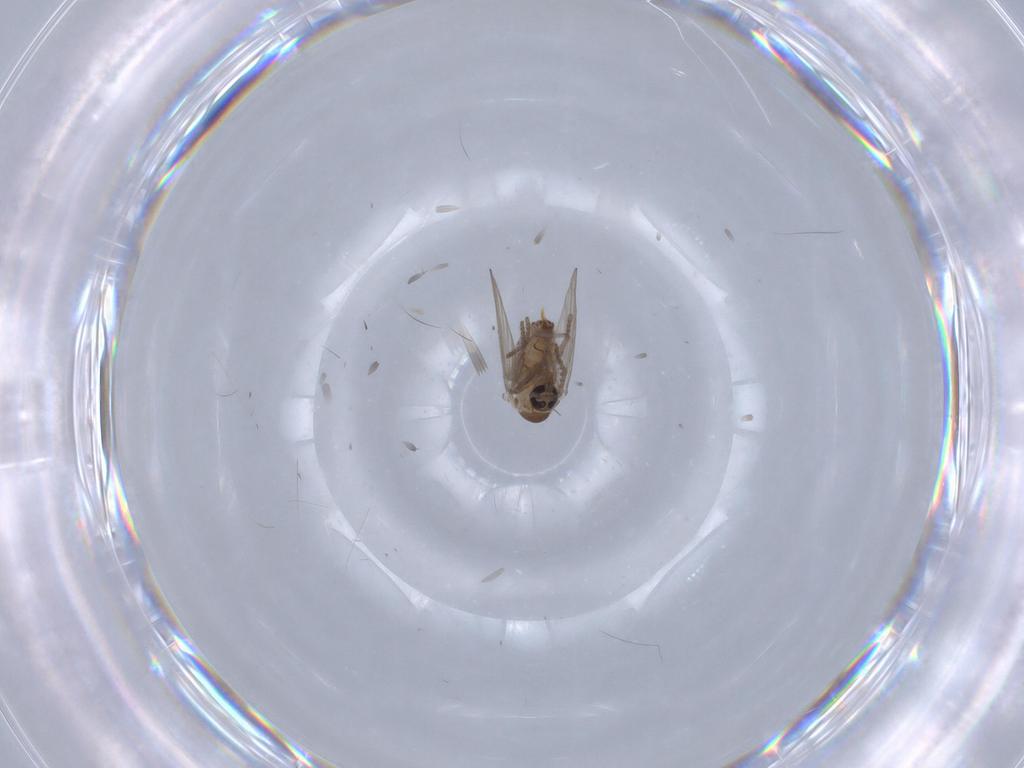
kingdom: Animalia
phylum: Arthropoda
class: Insecta
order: Diptera
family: Psychodidae
